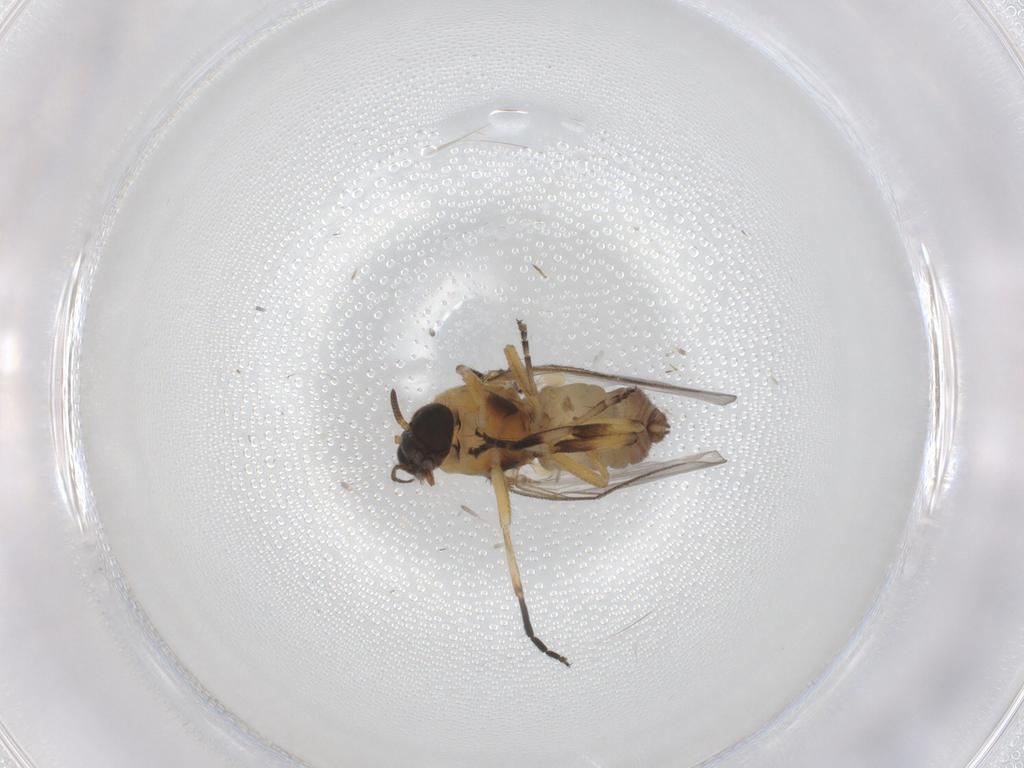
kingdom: Animalia
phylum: Arthropoda
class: Insecta
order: Diptera
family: Simuliidae
